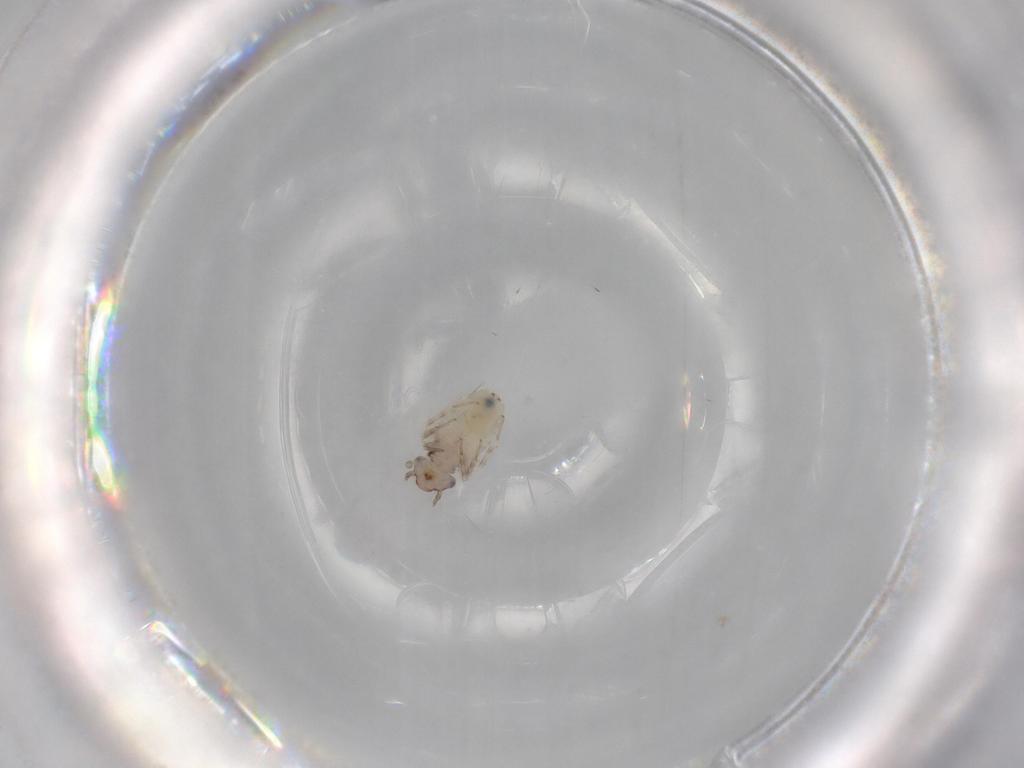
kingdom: Animalia
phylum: Arthropoda
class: Insecta
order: Psocodea
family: Lepidopsocidae
